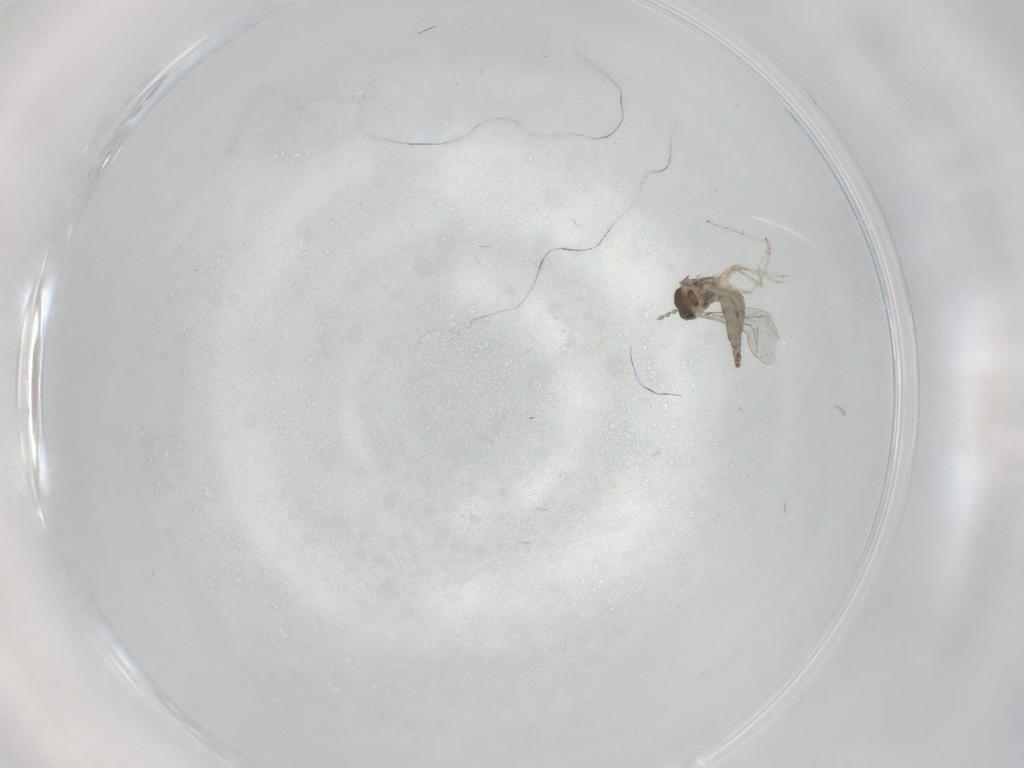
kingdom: Animalia
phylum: Arthropoda
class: Insecta
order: Diptera
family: Cecidomyiidae
